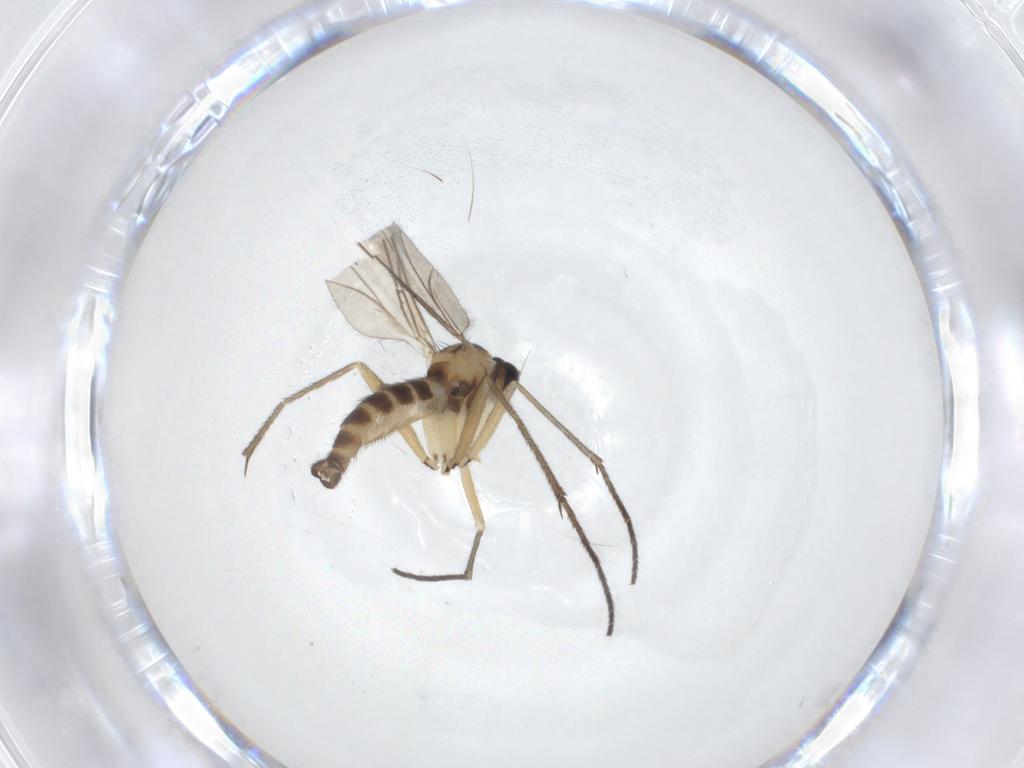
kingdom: Animalia
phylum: Arthropoda
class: Insecta
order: Diptera
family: Sciaridae
